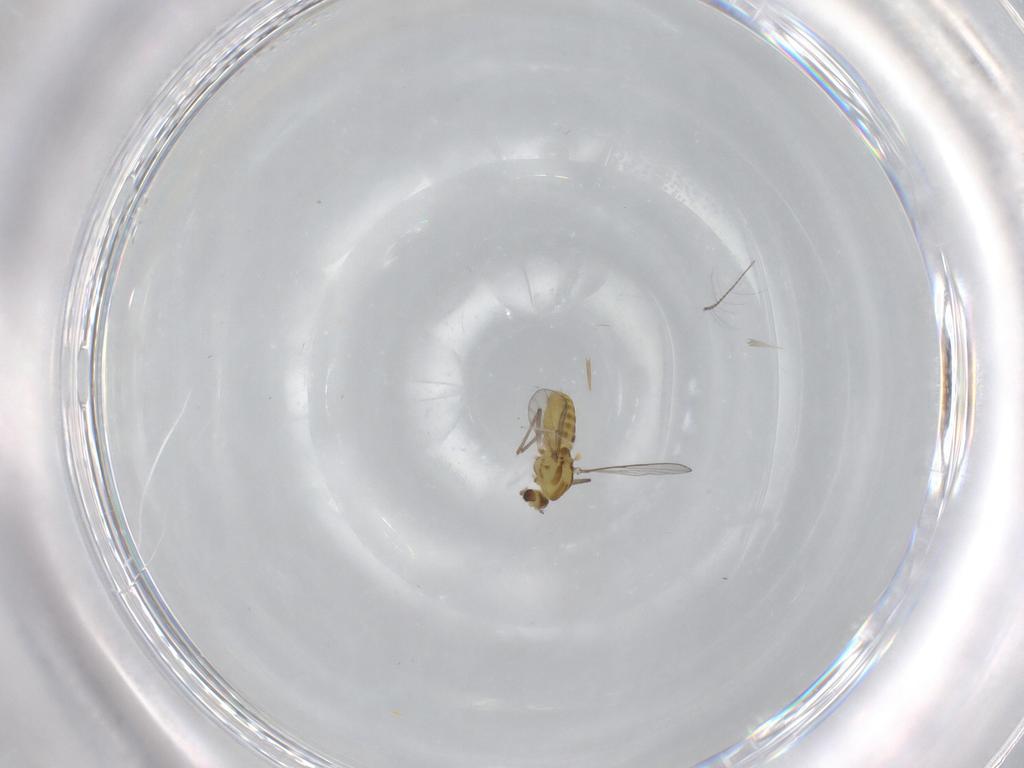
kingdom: Animalia
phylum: Arthropoda
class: Insecta
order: Diptera
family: Chironomidae
